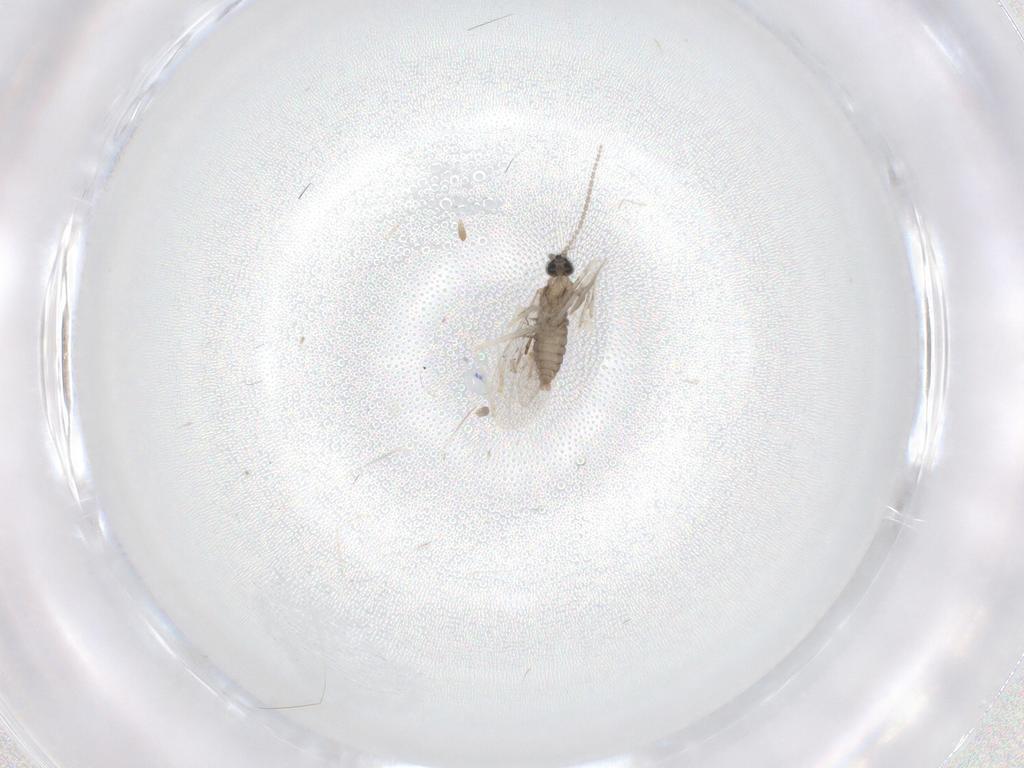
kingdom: Animalia
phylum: Arthropoda
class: Insecta
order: Diptera
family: Cecidomyiidae
